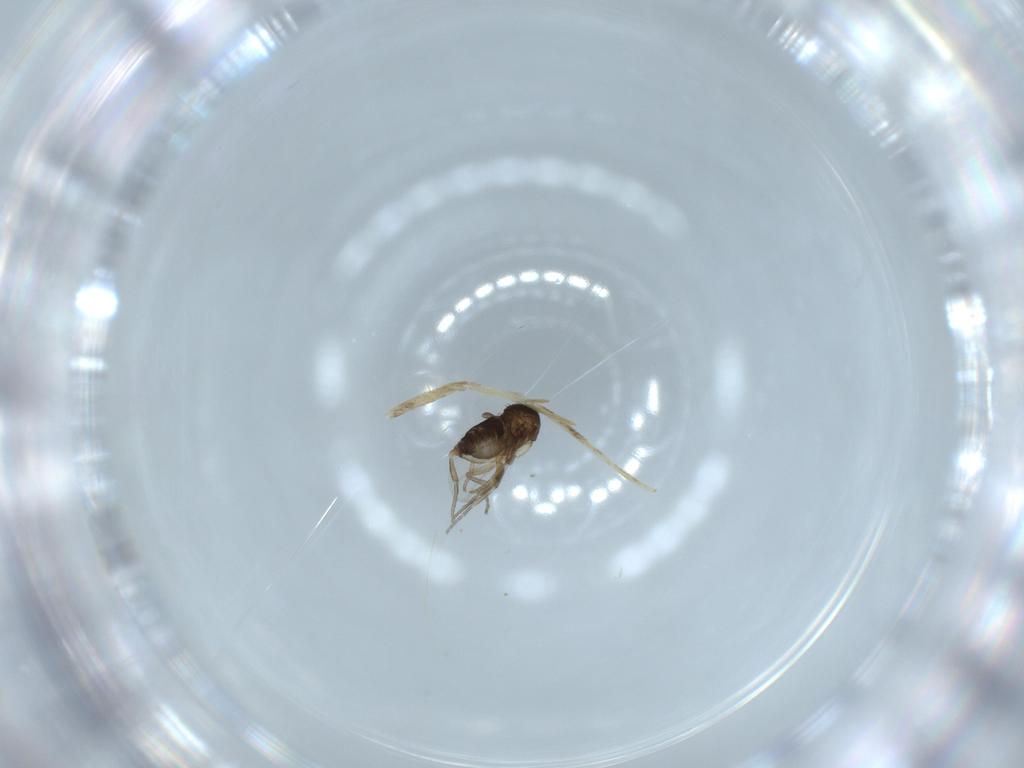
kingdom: Animalia
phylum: Arthropoda
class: Insecta
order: Diptera
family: Phoridae
